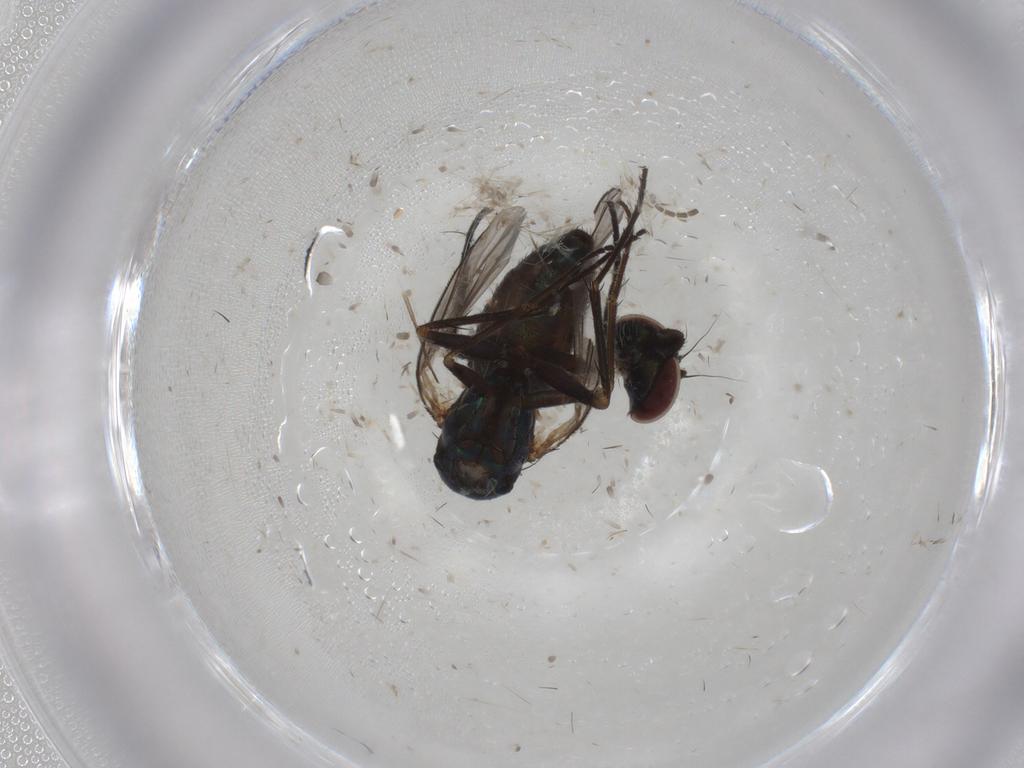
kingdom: Animalia
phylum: Arthropoda
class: Insecta
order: Diptera
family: Dolichopodidae
